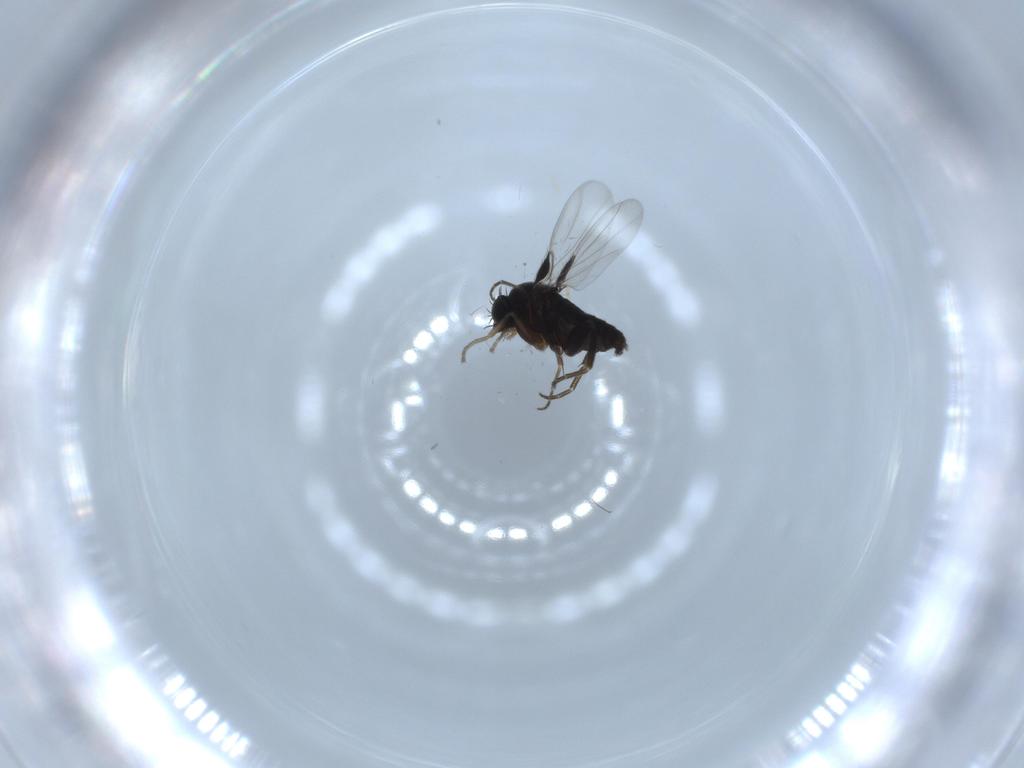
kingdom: Animalia
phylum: Arthropoda
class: Insecta
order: Diptera
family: Phoridae
